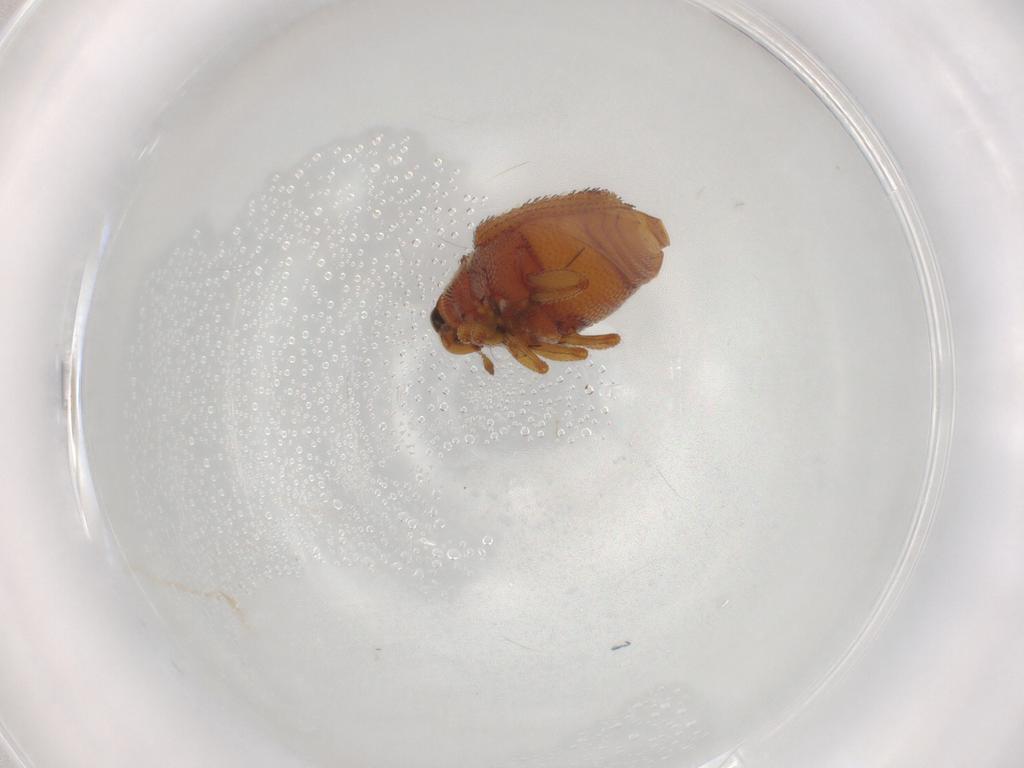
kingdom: Animalia
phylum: Arthropoda
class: Insecta
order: Coleoptera
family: Curculionidae
